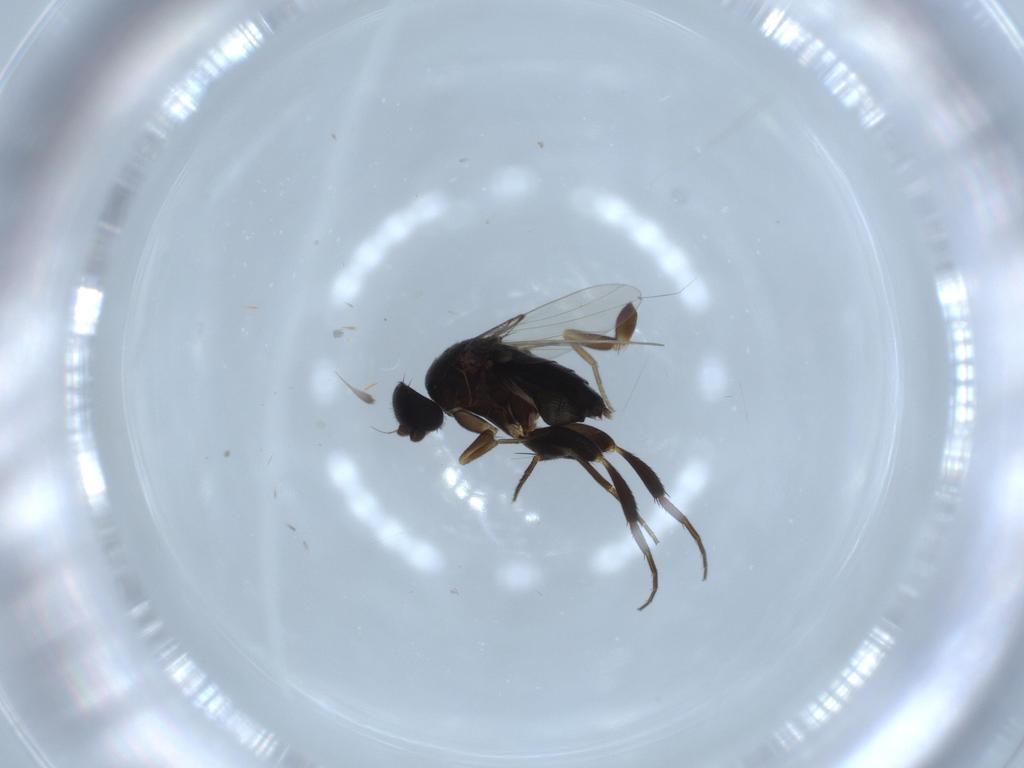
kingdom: Animalia
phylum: Arthropoda
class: Insecta
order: Diptera
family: Phoridae
